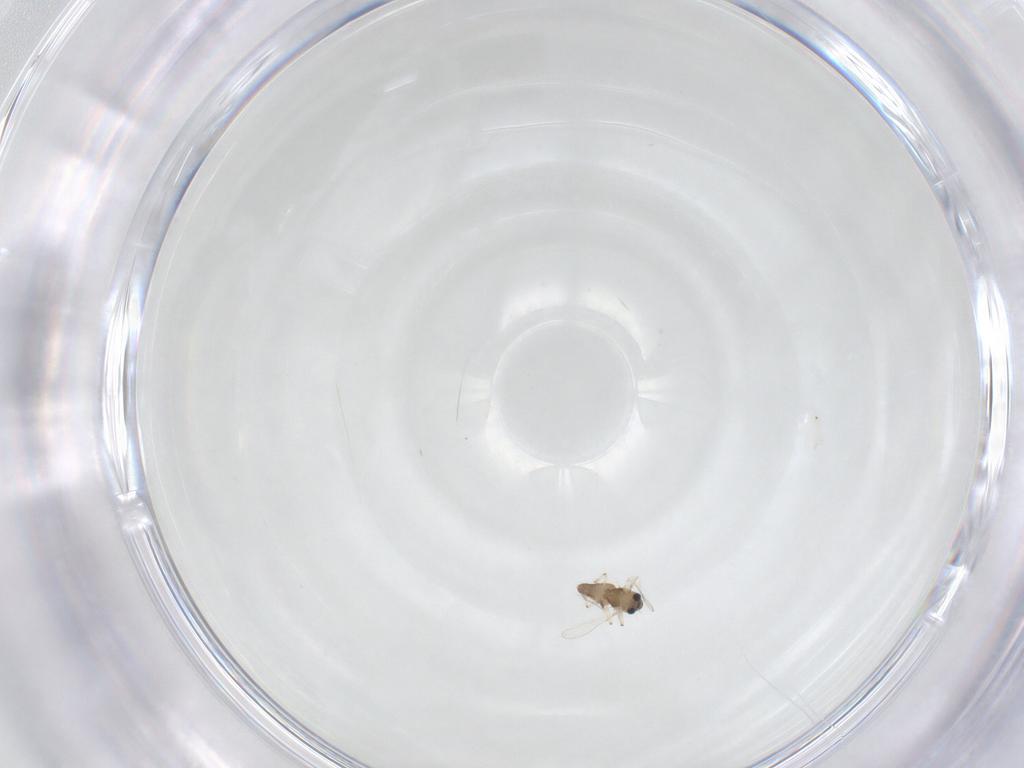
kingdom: Animalia
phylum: Arthropoda
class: Insecta
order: Diptera
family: Chironomidae
